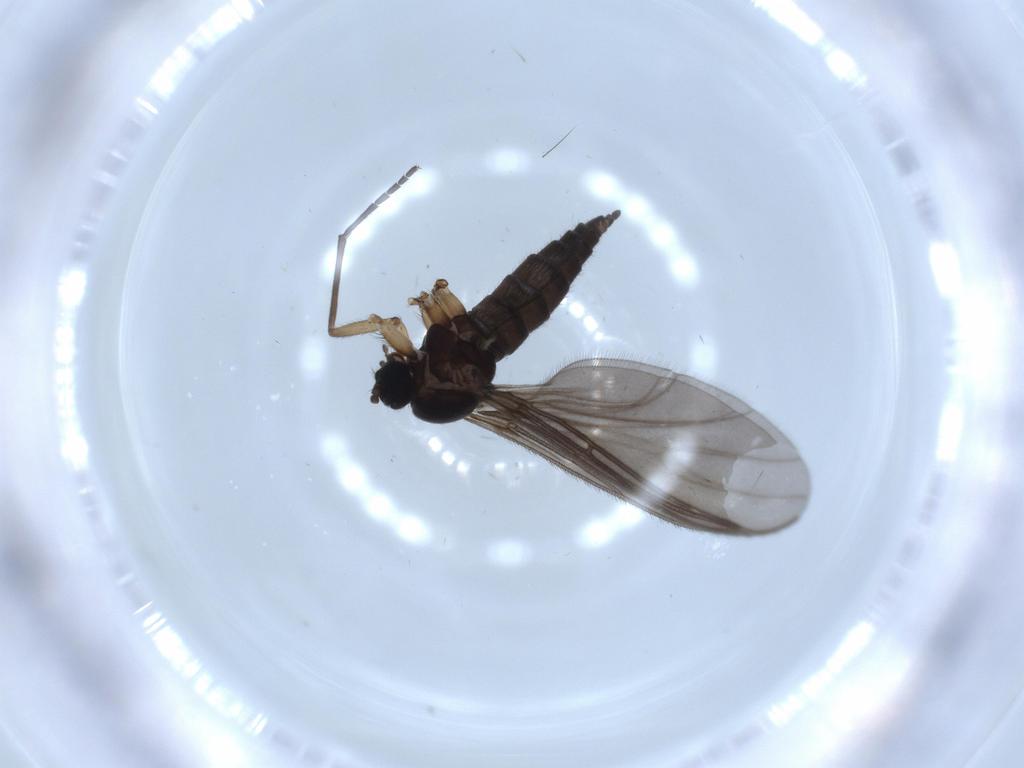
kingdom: Animalia
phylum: Arthropoda
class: Insecta
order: Diptera
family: Sciaridae
